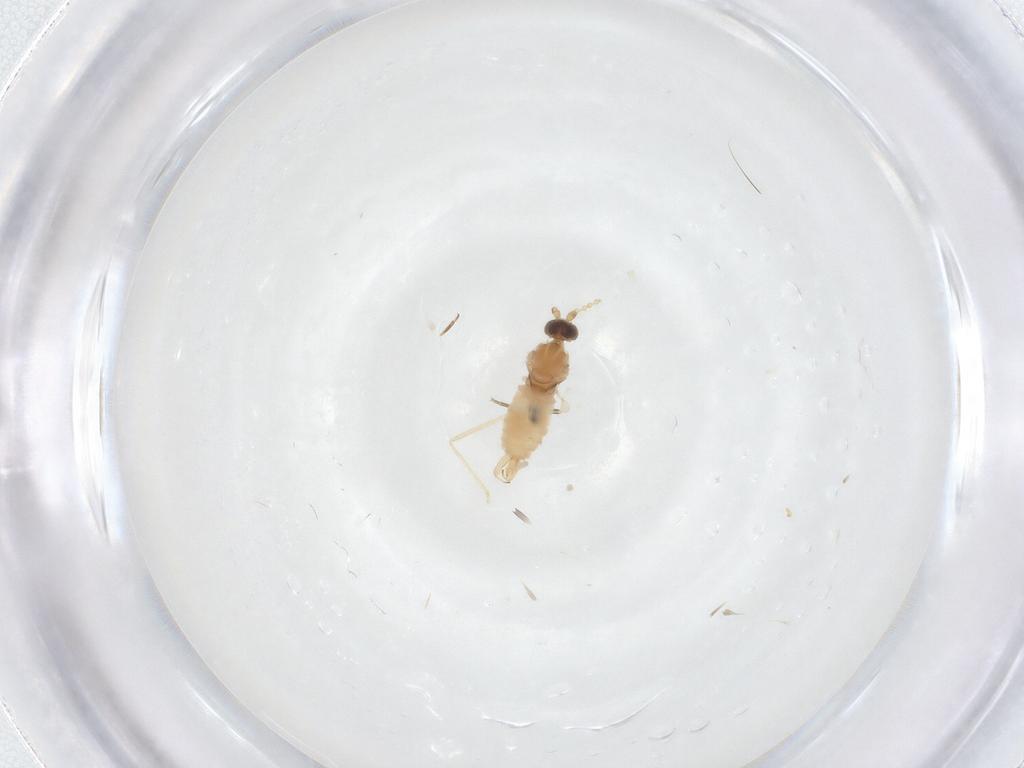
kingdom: Animalia
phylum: Arthropoda
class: Insecta
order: Diptera
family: Cecidomyiidae
